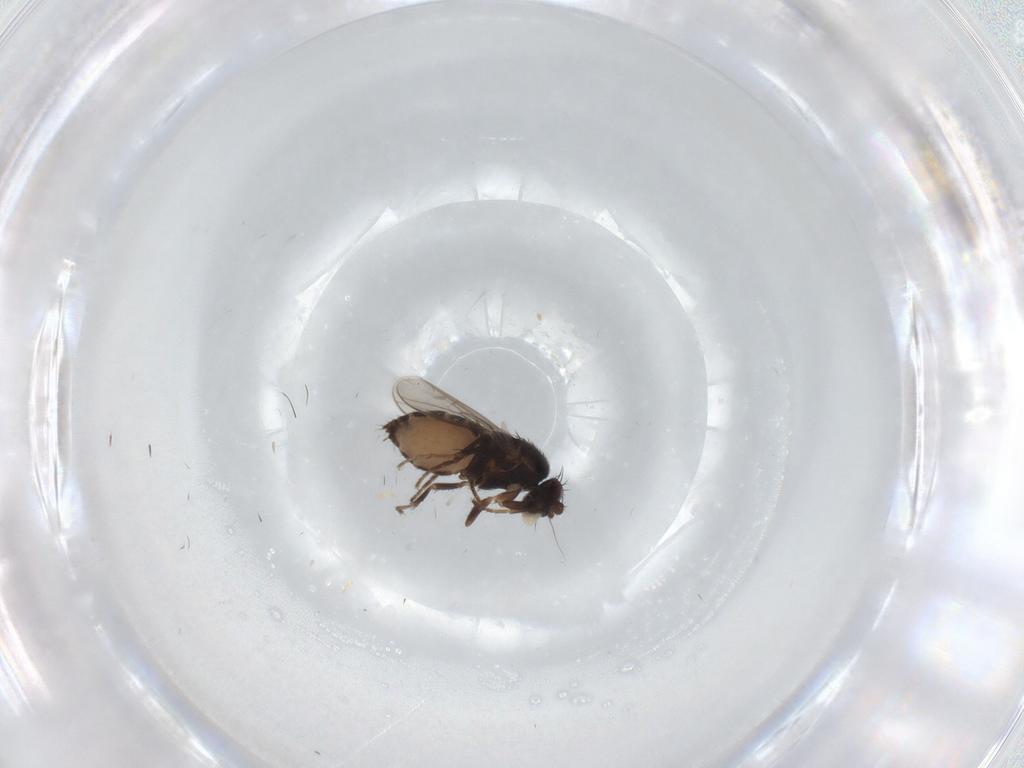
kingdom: Animalia
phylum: Arthropoda
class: Insecta
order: Diptera
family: Sphaeroceridae
